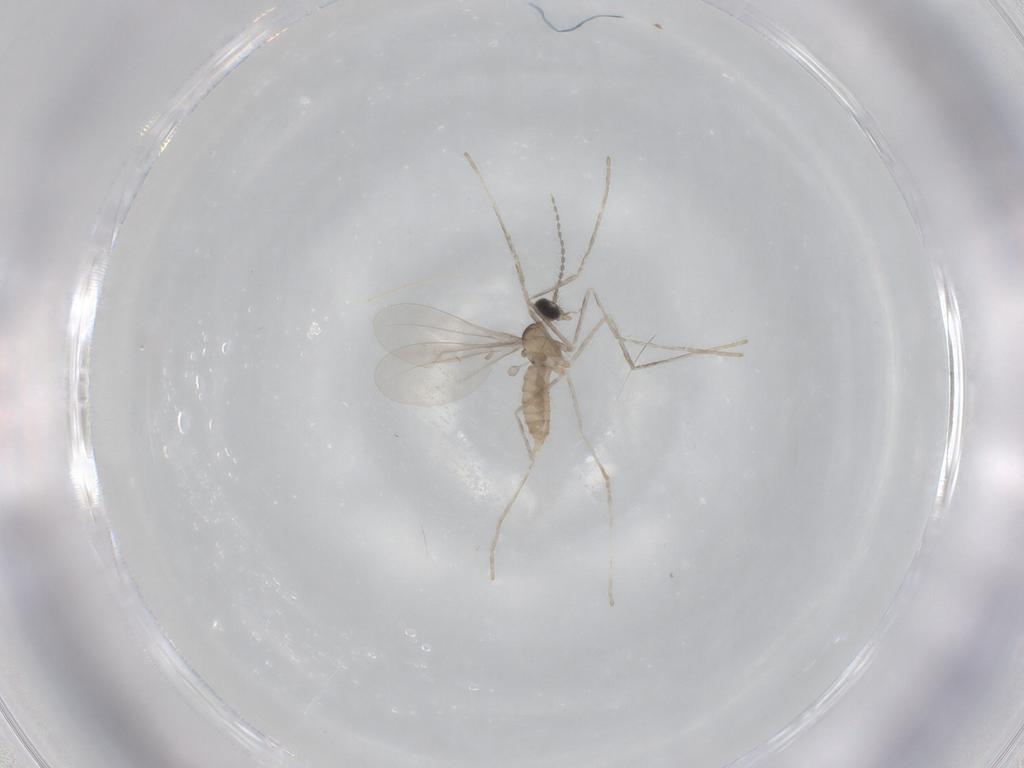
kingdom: Animalia
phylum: Arthropoda
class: Insecta
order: Diptera
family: Cecidomyiidae
